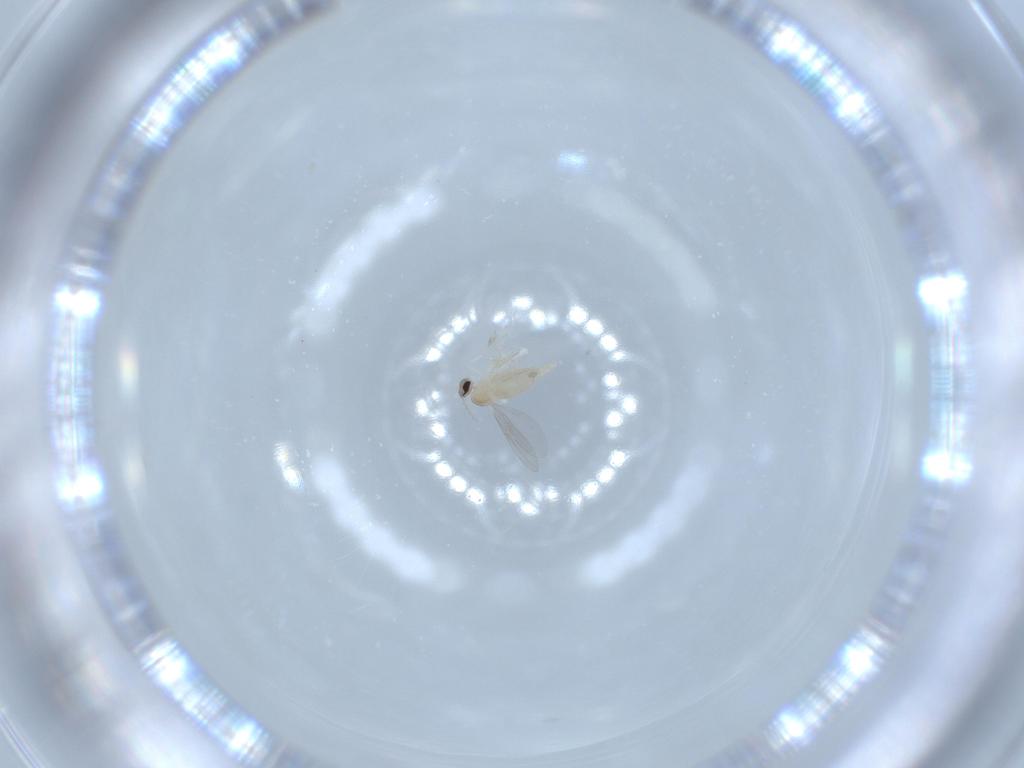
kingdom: Animalia
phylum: Arthropoda
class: Insecta
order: Diptera
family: Cecidomyiidae
